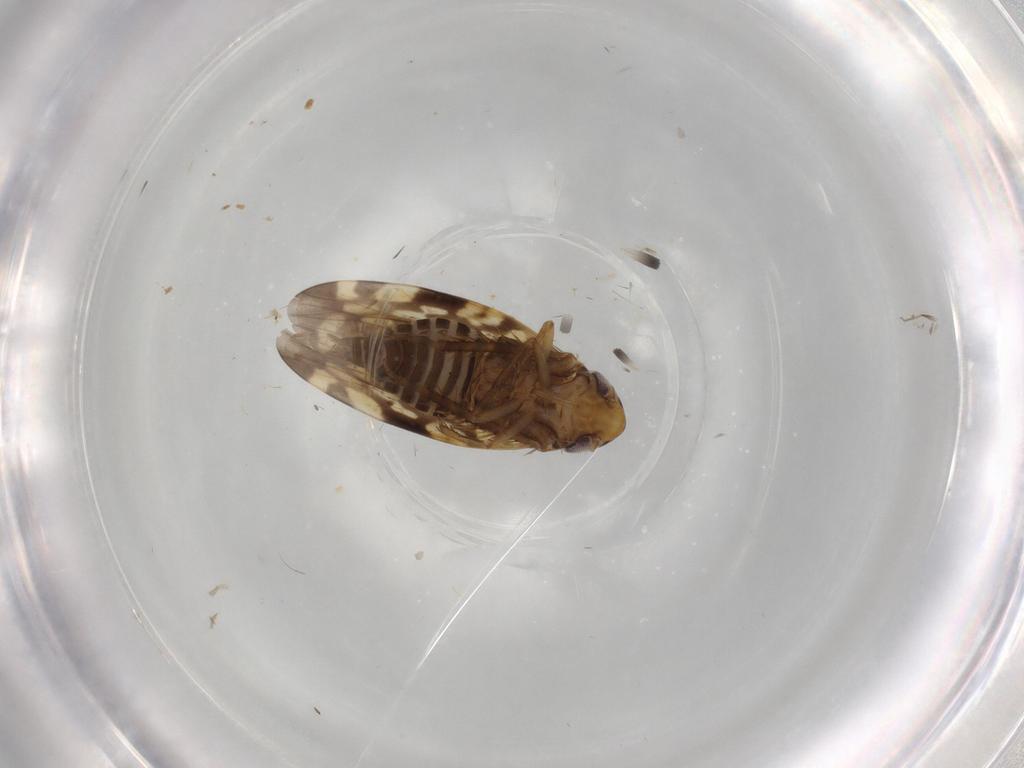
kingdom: Animalia
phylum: Arthropoda
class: Insecta
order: Hemiptera
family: Cicadellidae
